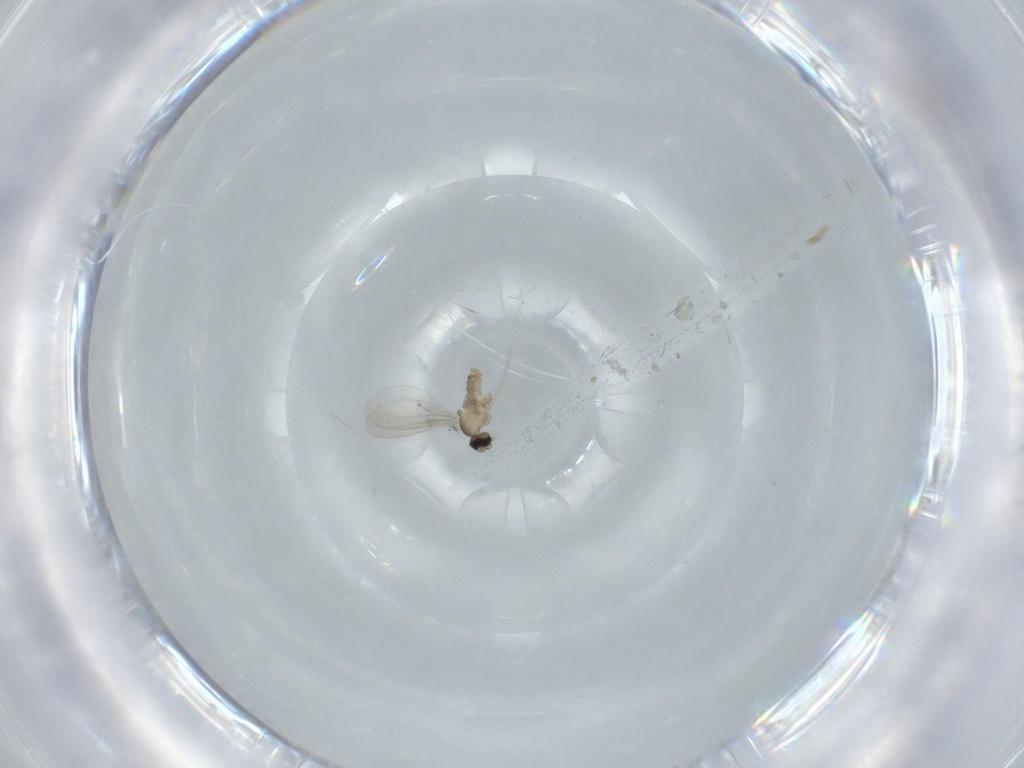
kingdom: Animalia
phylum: Arthropoda
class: Insecta
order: Diptera
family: Cecidomyiidae
